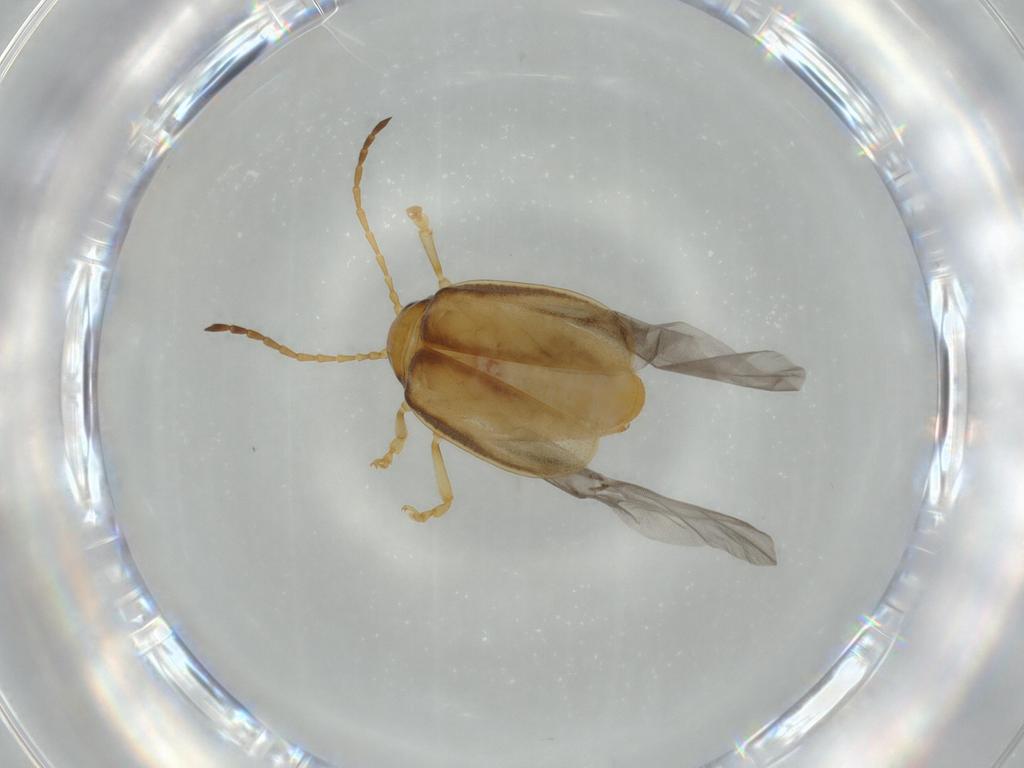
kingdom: Animalia
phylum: Arthropoda
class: Insecta
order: Coleoptera
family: Chrysomelidae
